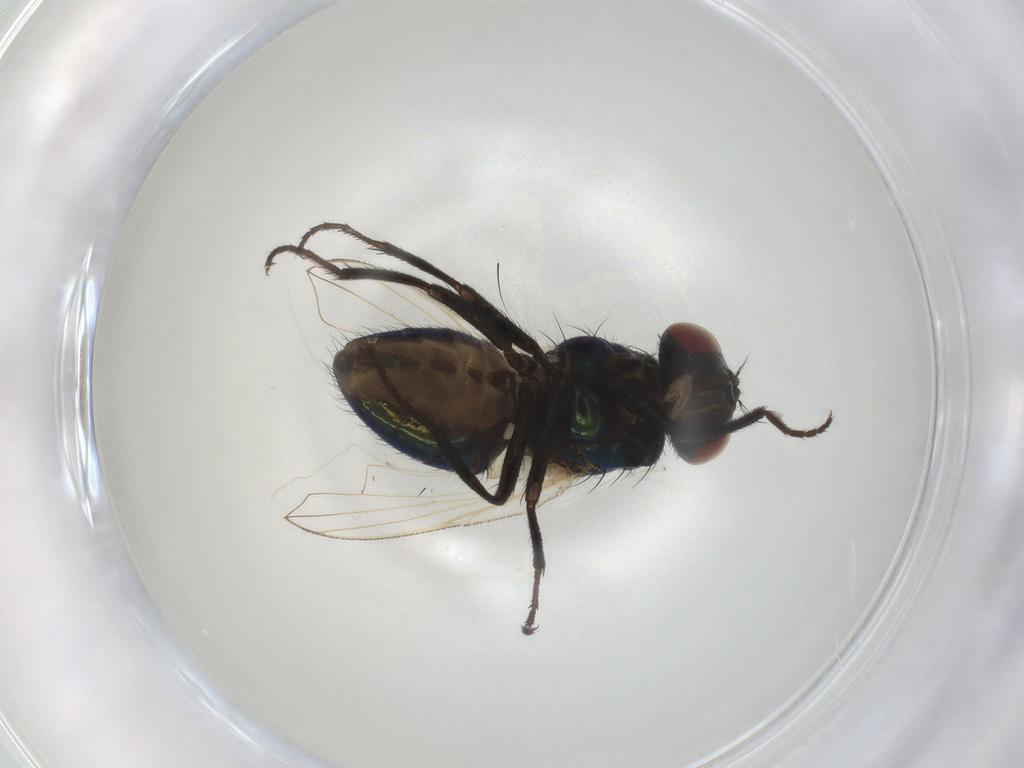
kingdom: Animalia
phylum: Arthropoda
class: Insecta
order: Diptera
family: Muscidae
